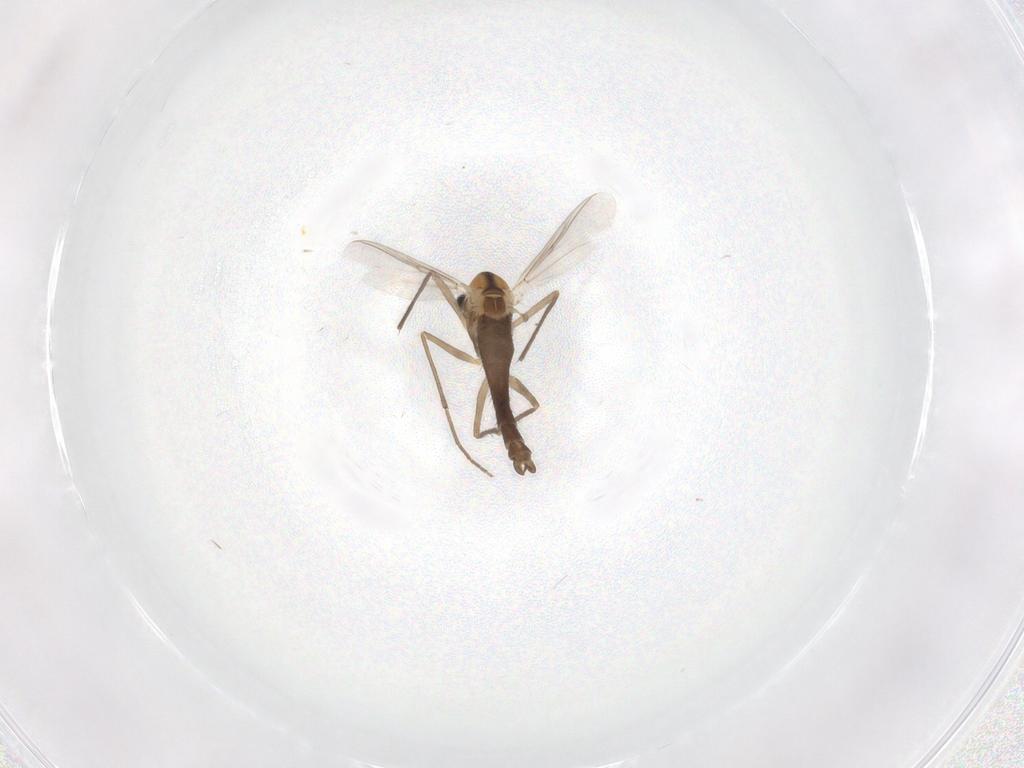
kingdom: Animalia
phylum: Arthropoda
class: Insecta
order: Diptera
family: Chironomidae
